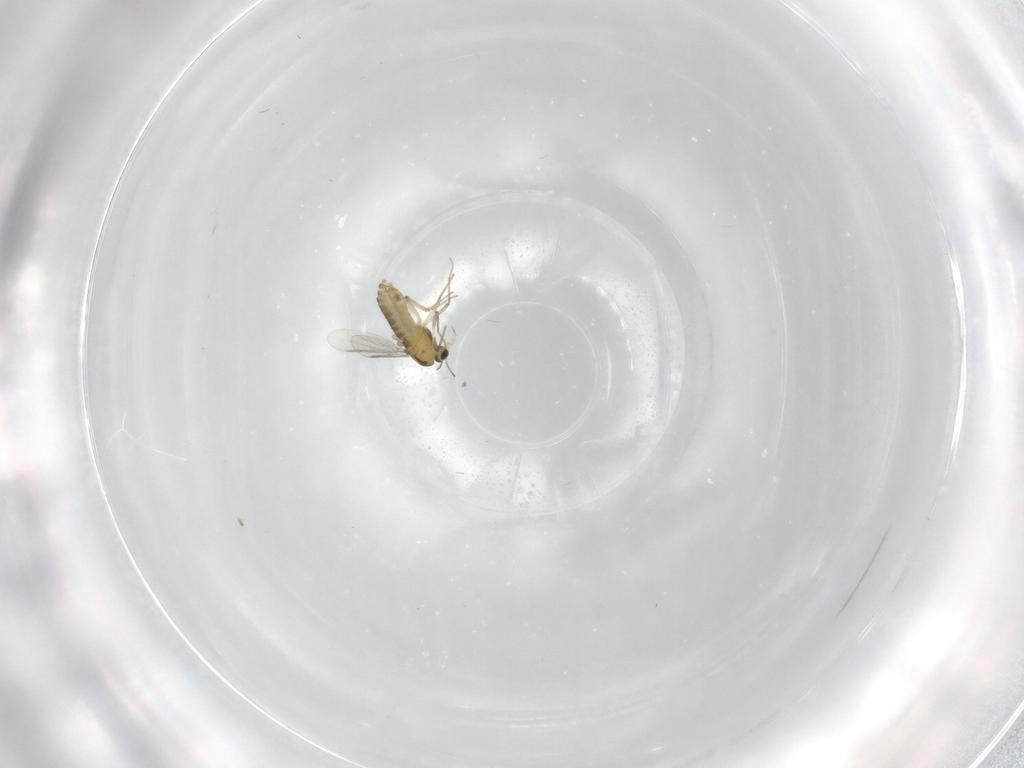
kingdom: Animalia
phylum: Arthropoda
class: Insecta
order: Diptera
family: Chironomidae
